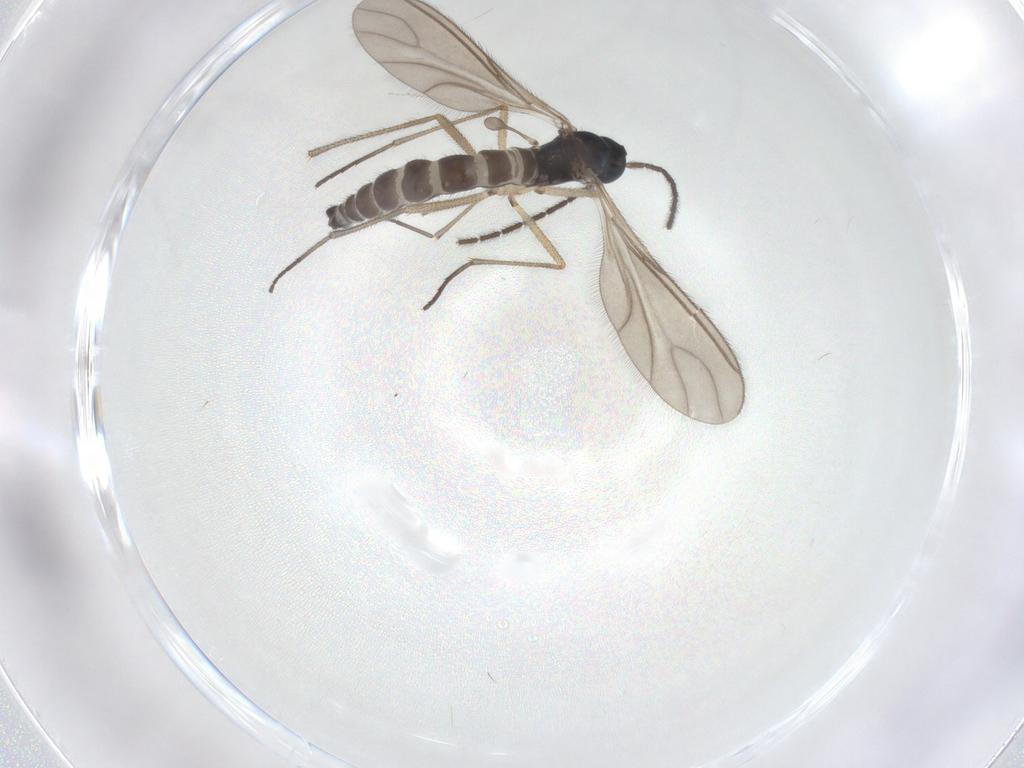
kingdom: Animalia
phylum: Arthropoda
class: Insecta
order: Diptera
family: Sciaridae
